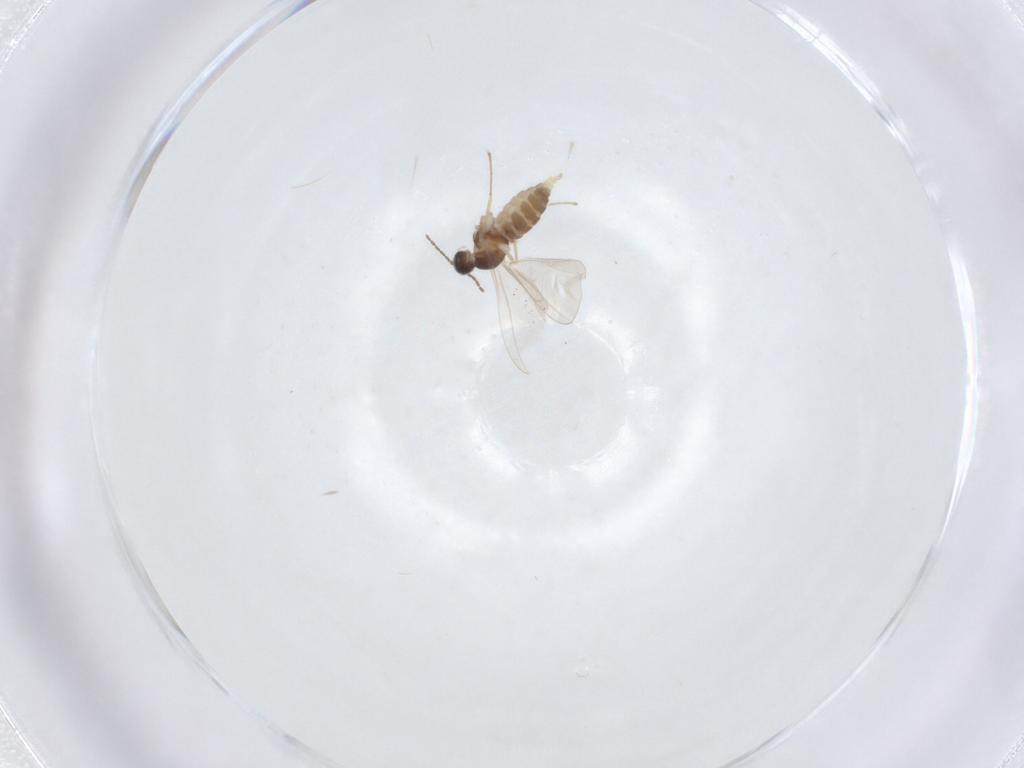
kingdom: Animalia
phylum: Arthropoda
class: Insecta
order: Diptera
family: Cecidomyiidae
